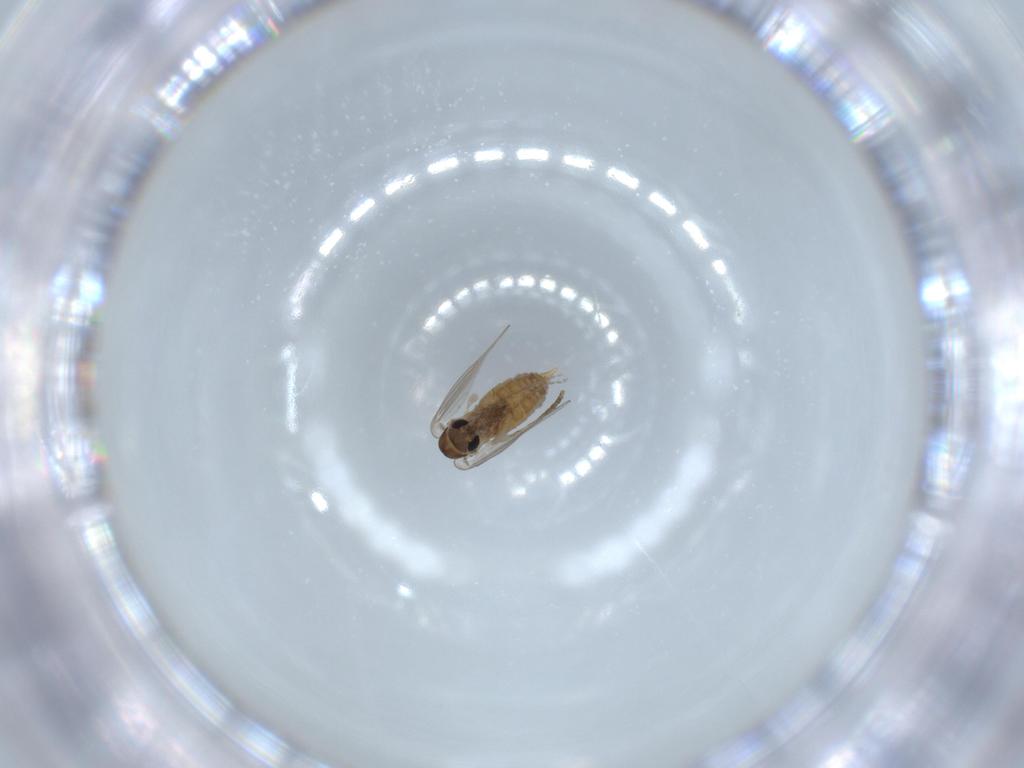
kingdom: Animalia
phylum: Arthropoda
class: Insecta
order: Diptera
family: Psychodidae
